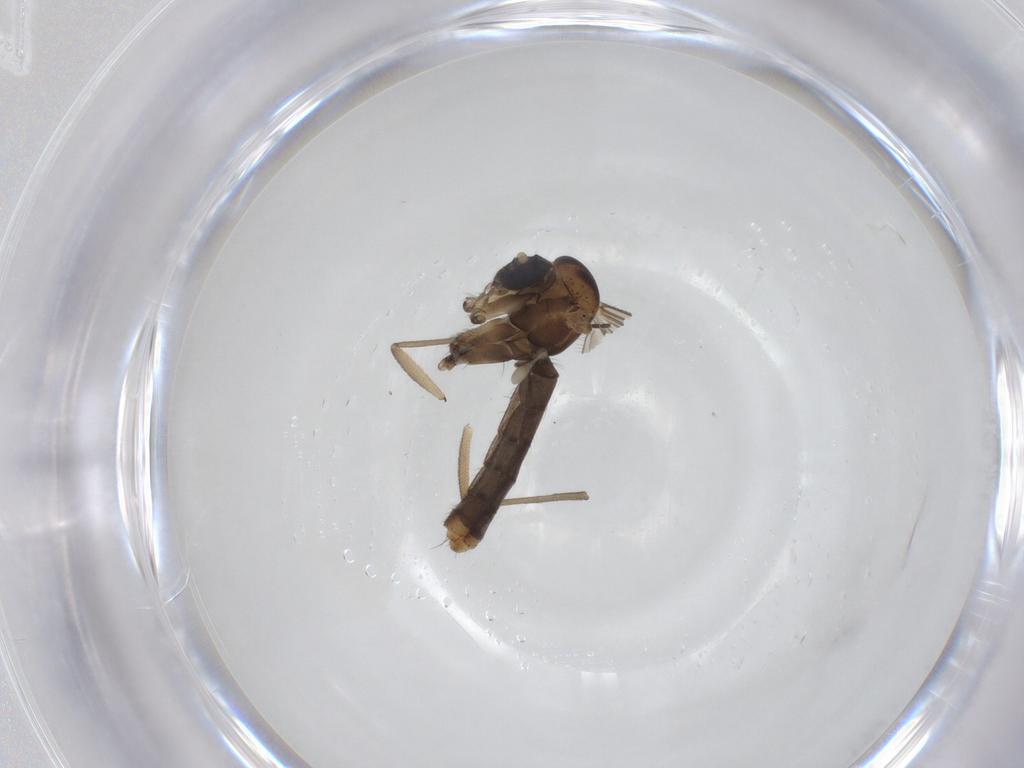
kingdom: Animalia
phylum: Arthropoda
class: Insecta
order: Diptera
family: Mycetophilidae
